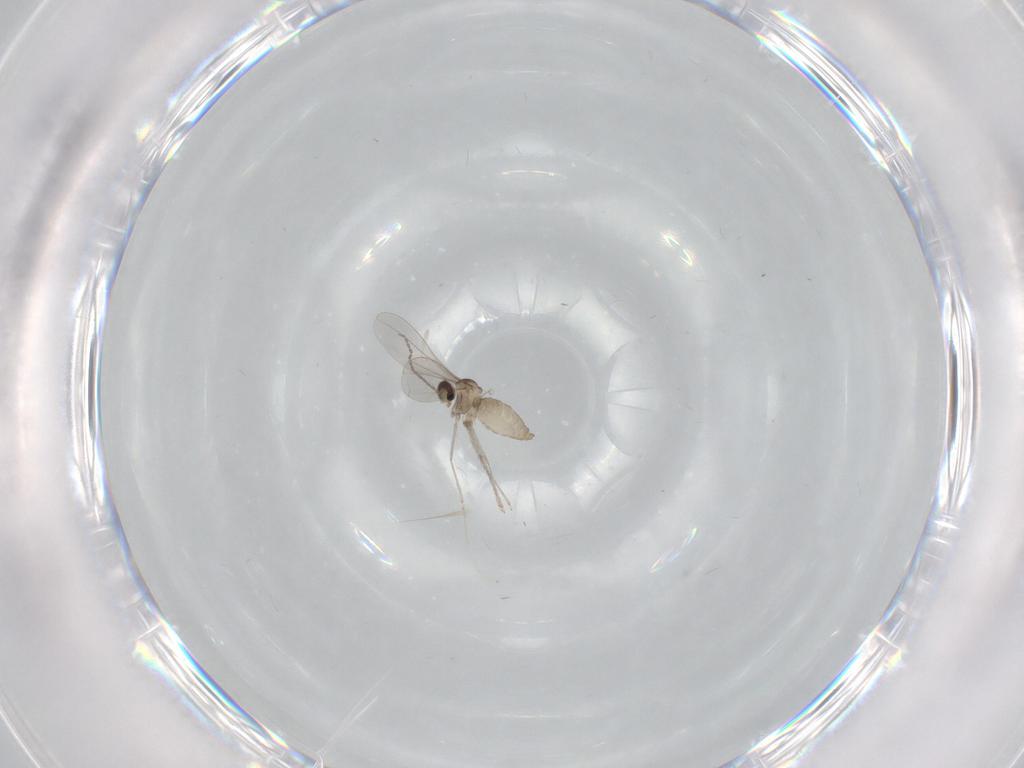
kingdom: Animalia
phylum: Arthropoda
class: Insecta
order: Diptera
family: Cecidomyiidae
